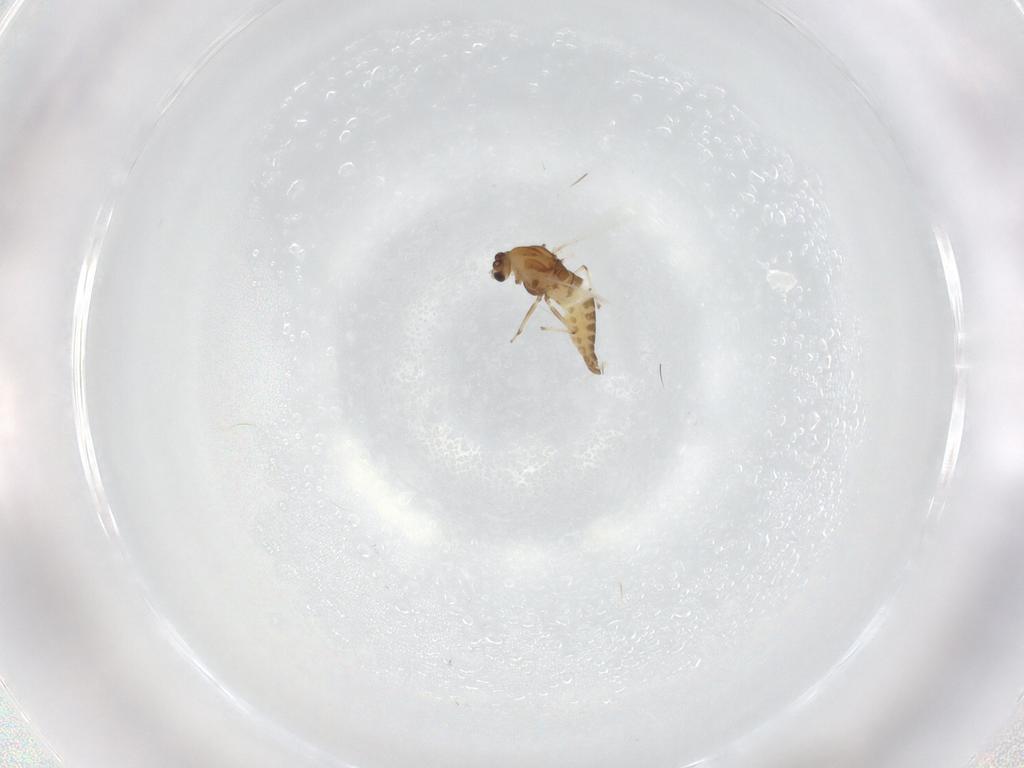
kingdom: Animalia
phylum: Arthropoda
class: Insecta
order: Diptera
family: Chironomidae
